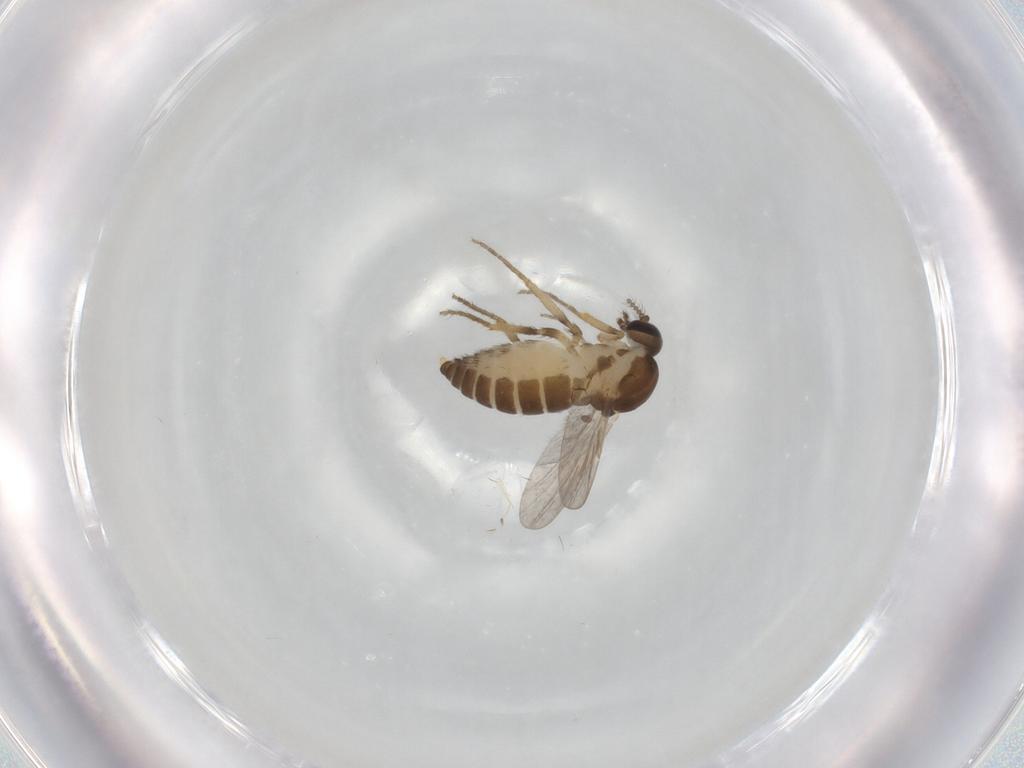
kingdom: Animalia
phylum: Arthropoda
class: Insecta
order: Diptera
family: Ceratopogonidae
